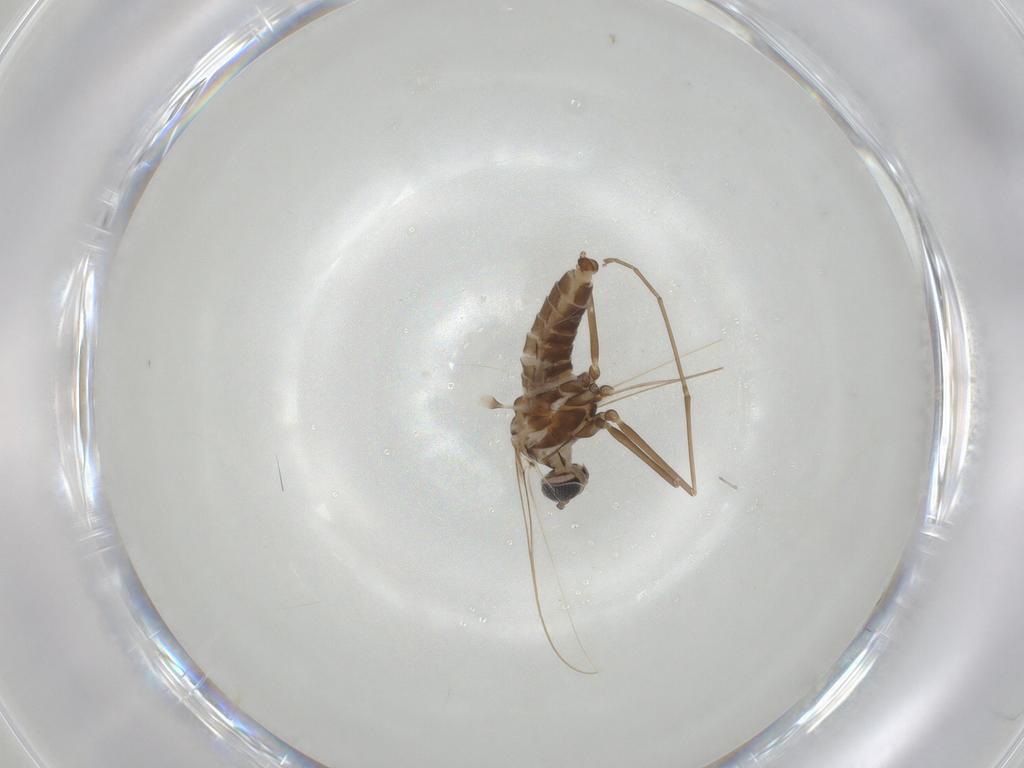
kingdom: Animalia
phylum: Arthropoda
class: Insecta
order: Diptera
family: Cecidomyiidae
